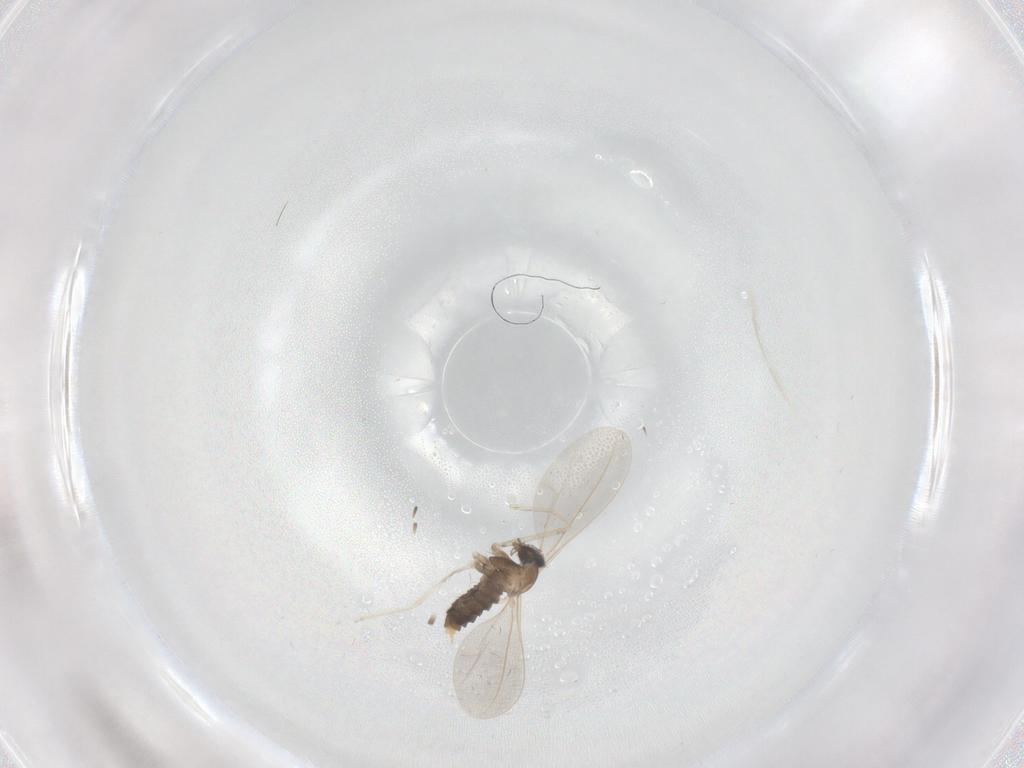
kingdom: Animalia
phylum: Arthropoda
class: Insecta
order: Diptera
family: Cecidomyiidae
